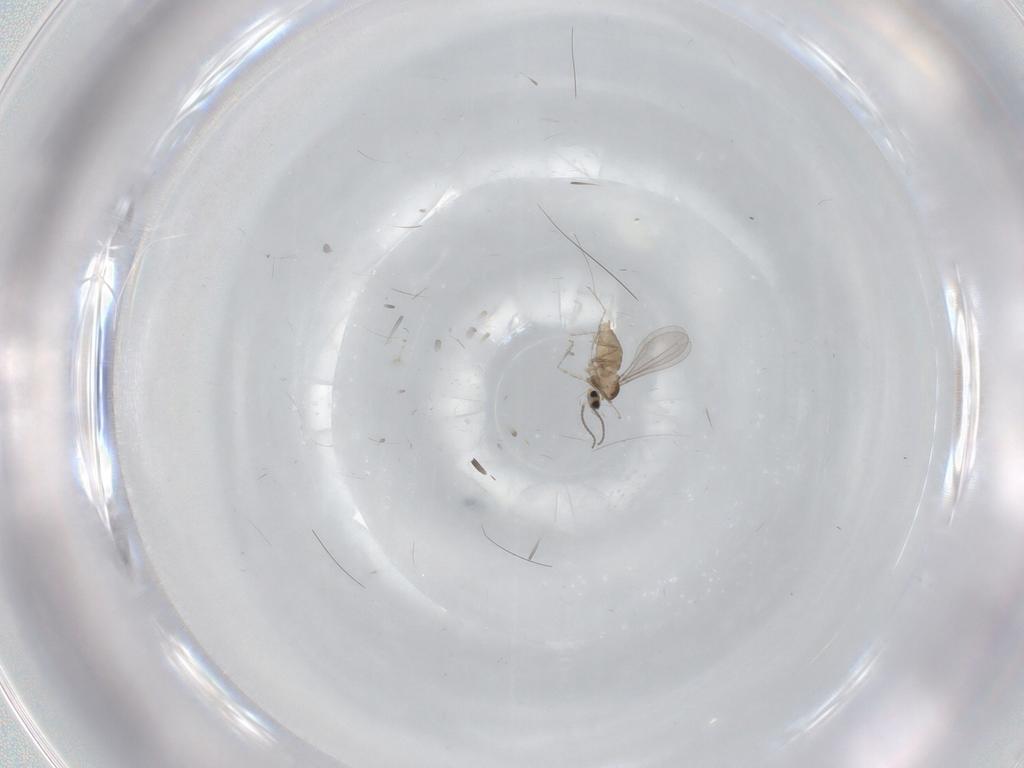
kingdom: Animalia
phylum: Arthropoda
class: Insecta
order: Diptera
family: Cecidomyiidae
